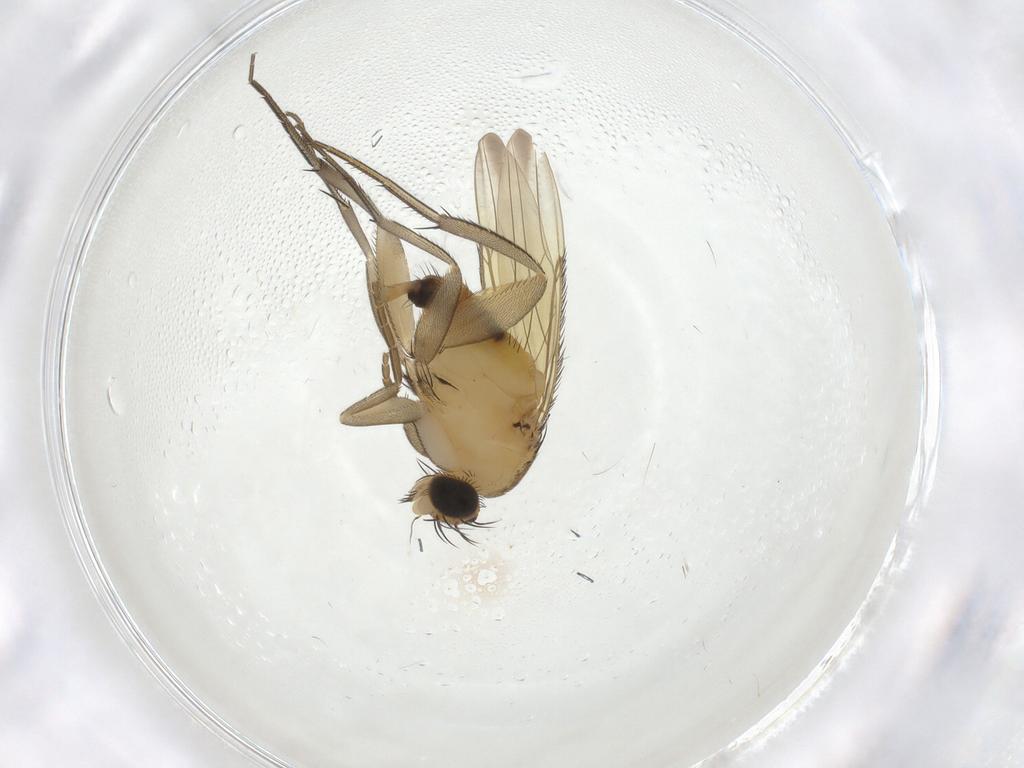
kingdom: Animalia
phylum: Arthropoda
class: Insecta
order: Diptera
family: Phoridae
